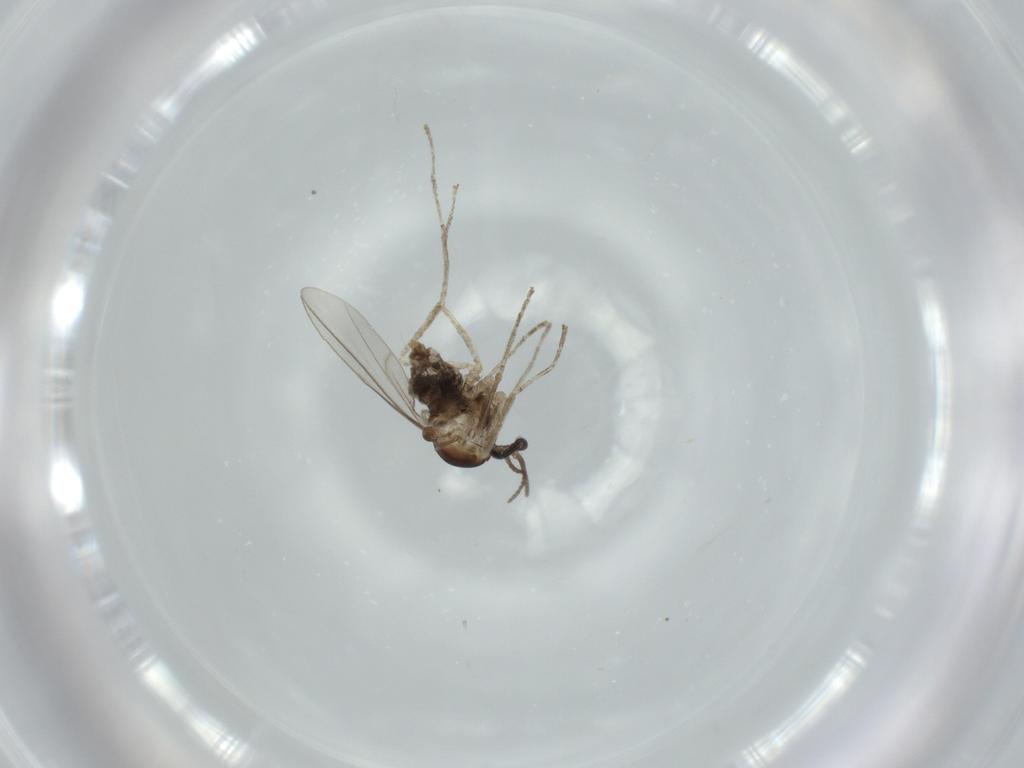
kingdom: Animalia
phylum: Arthropoda
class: Insecta
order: Diptera
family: Cecidomyiidae
